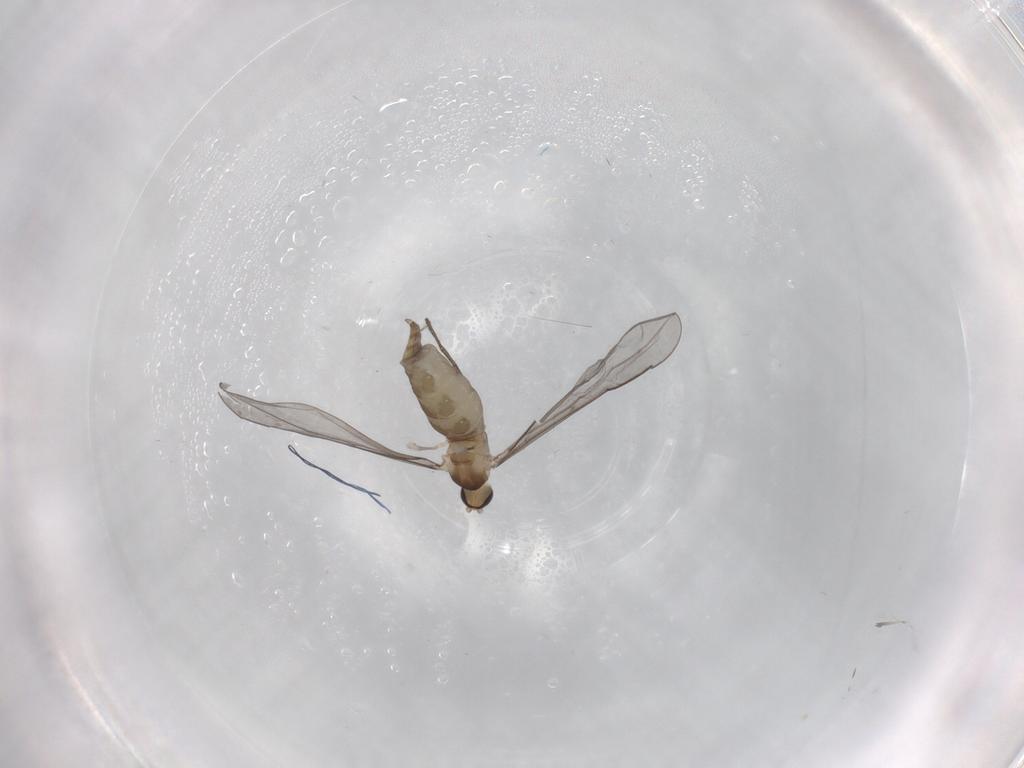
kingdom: Animalia
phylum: Arthropoda
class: Insecta
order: Diptera
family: Cecidomyiidae
